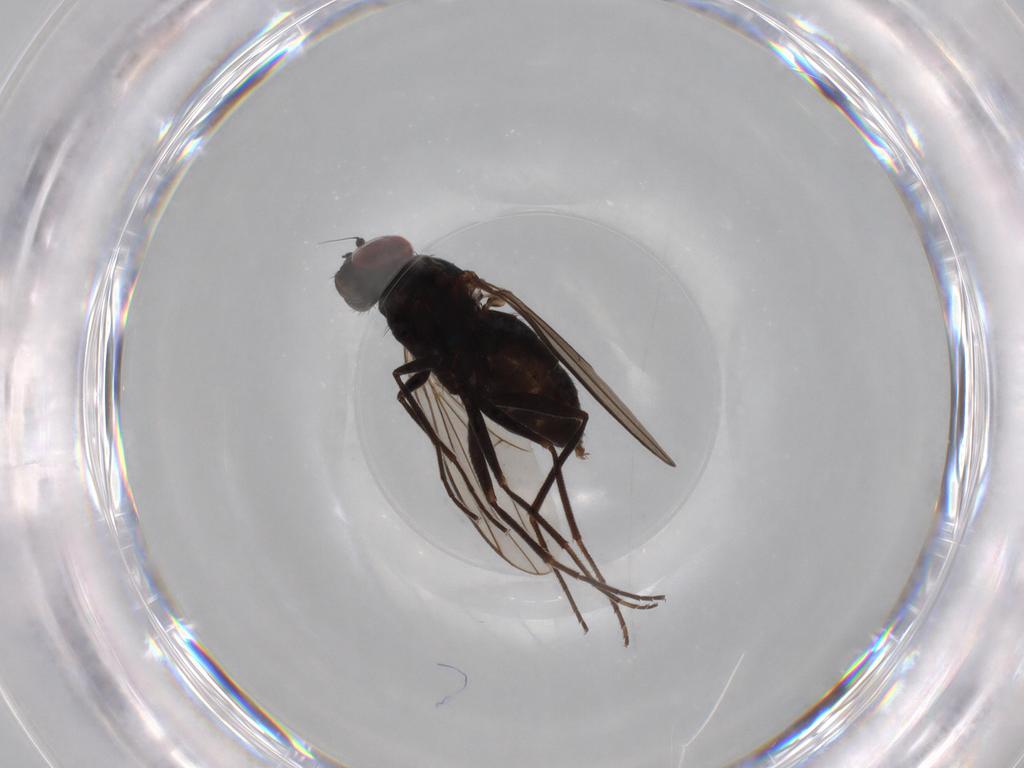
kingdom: Animalia
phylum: Arthropoda
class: Insecta
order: Diptera
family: Dolichopodidae
